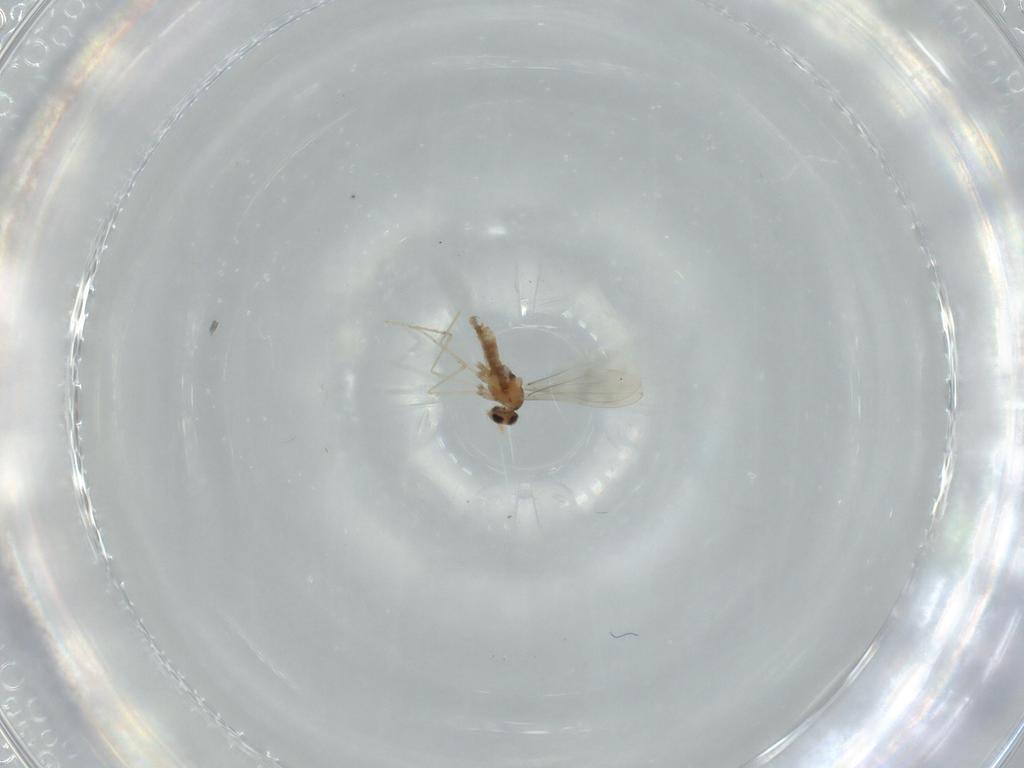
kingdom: Animalia
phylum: Arthropoda
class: Insecta
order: Diptera
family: Cecidomyiidae
